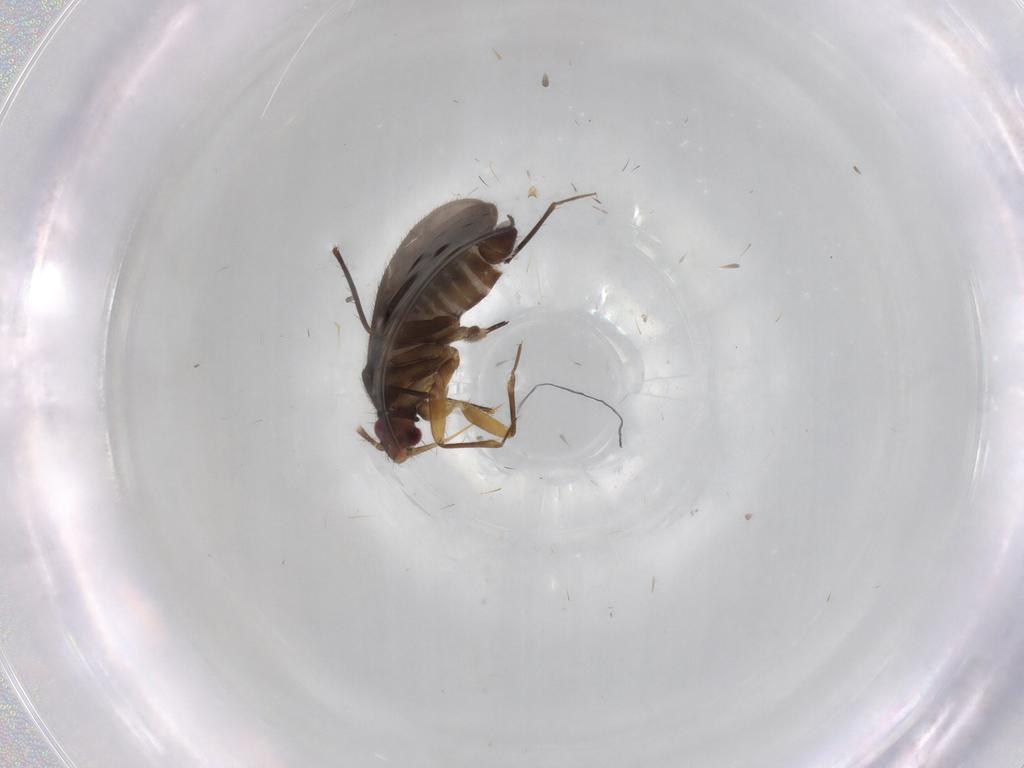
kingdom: Animalia
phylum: Arthropoda
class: Insecta
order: Hemiptera
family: Ceratocombidae
